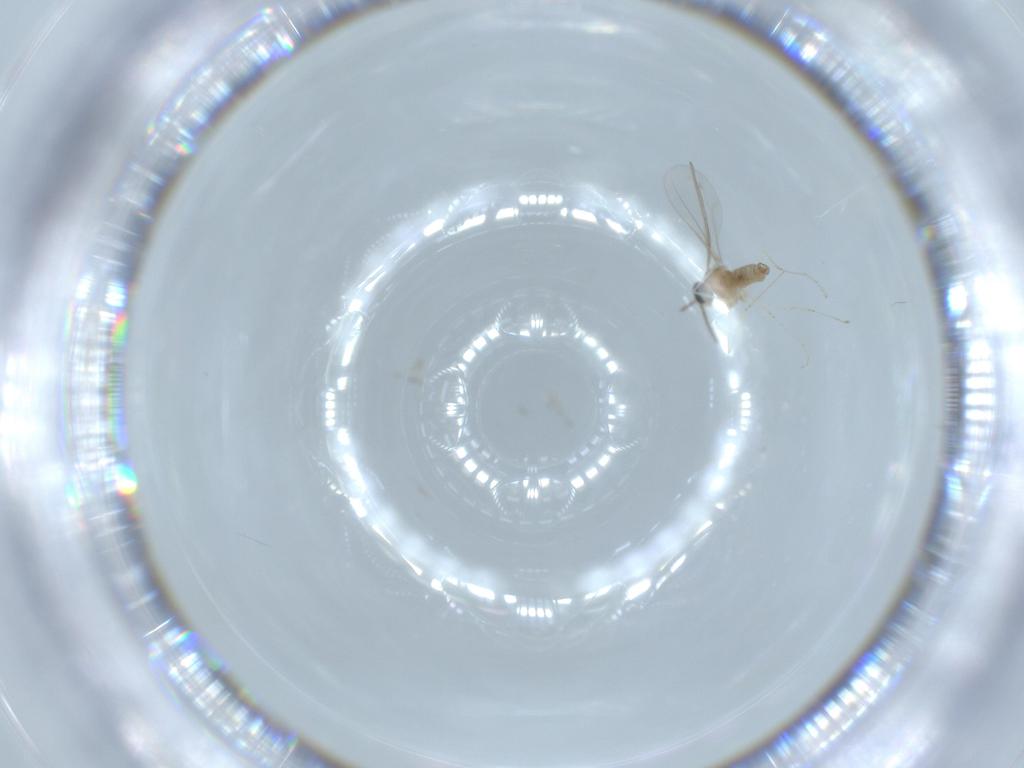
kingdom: Animalia
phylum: Arthropoda
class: Insecta
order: Diptera
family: Cecidomyiidae
